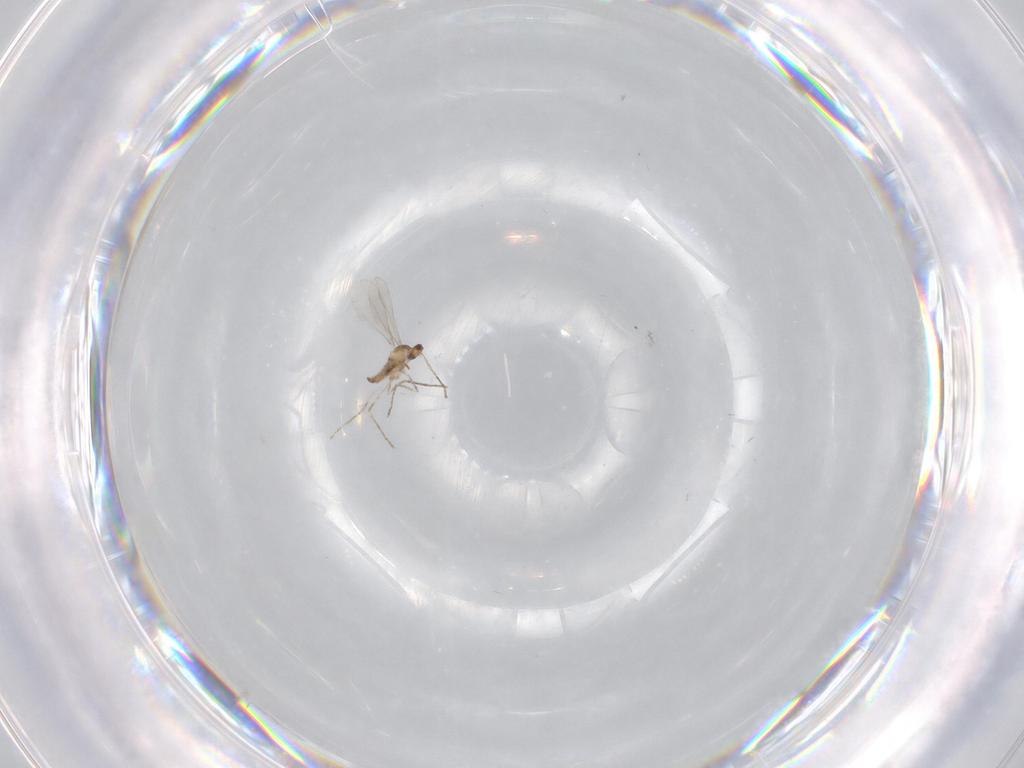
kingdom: Animalia
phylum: Arthropoda
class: Insecta
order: Diptera
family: Cecidomyiidae
